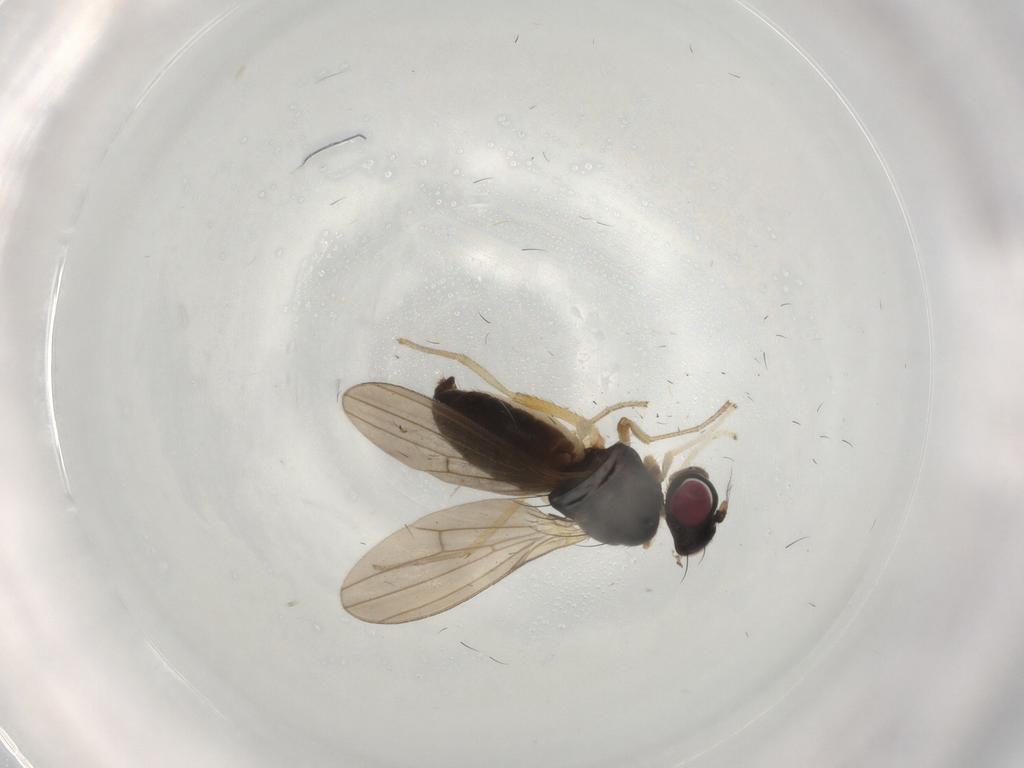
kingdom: Animalia
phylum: Arthropoda
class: Insecta
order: Diptera
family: Lauxaniidae
